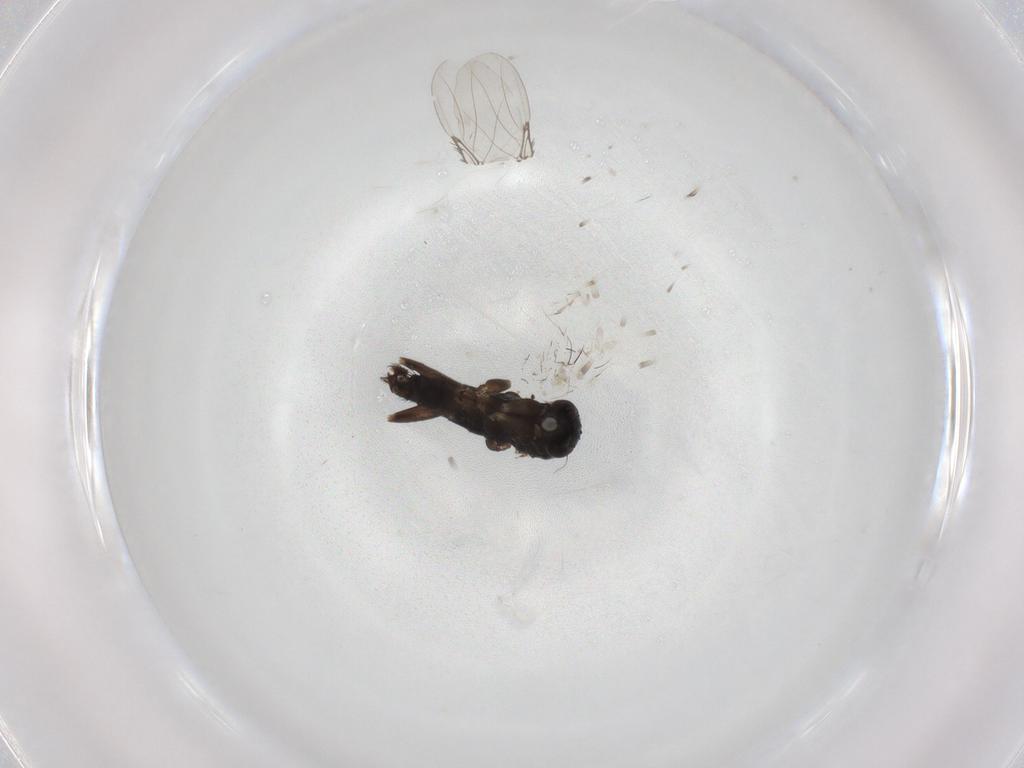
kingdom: Animalia
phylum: Arthropoda
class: Insecta
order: Diptera
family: Phoridae
